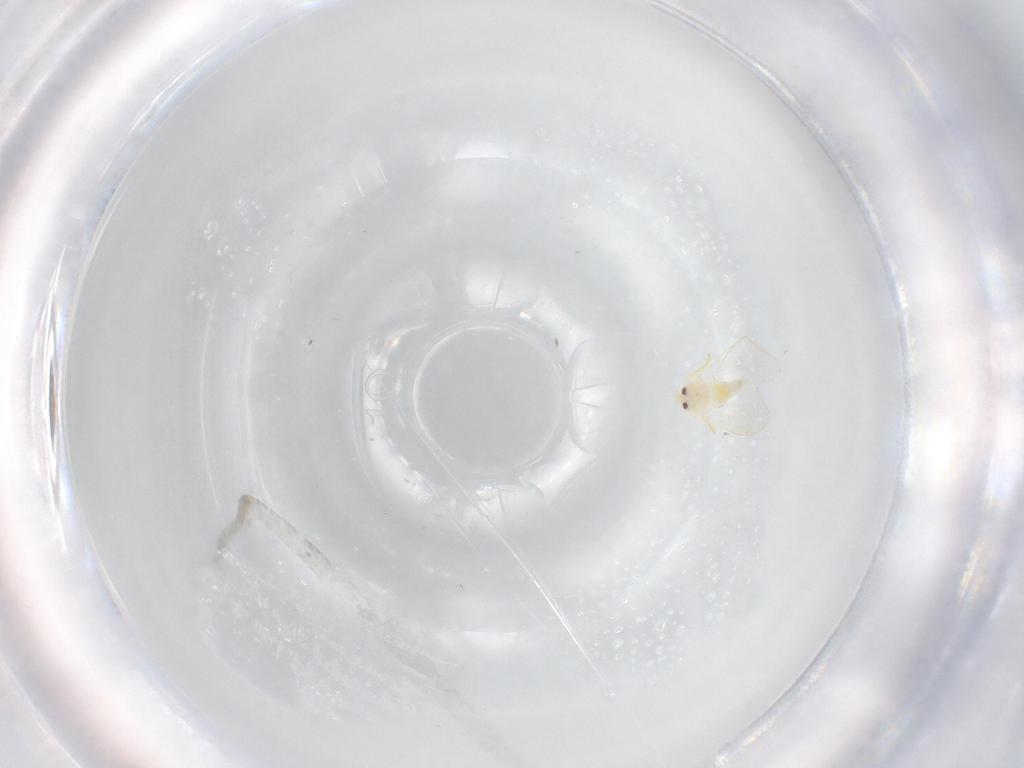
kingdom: Animalia
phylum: Arthropoda
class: Insecta
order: Hemiptera
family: Aleyrodidae
